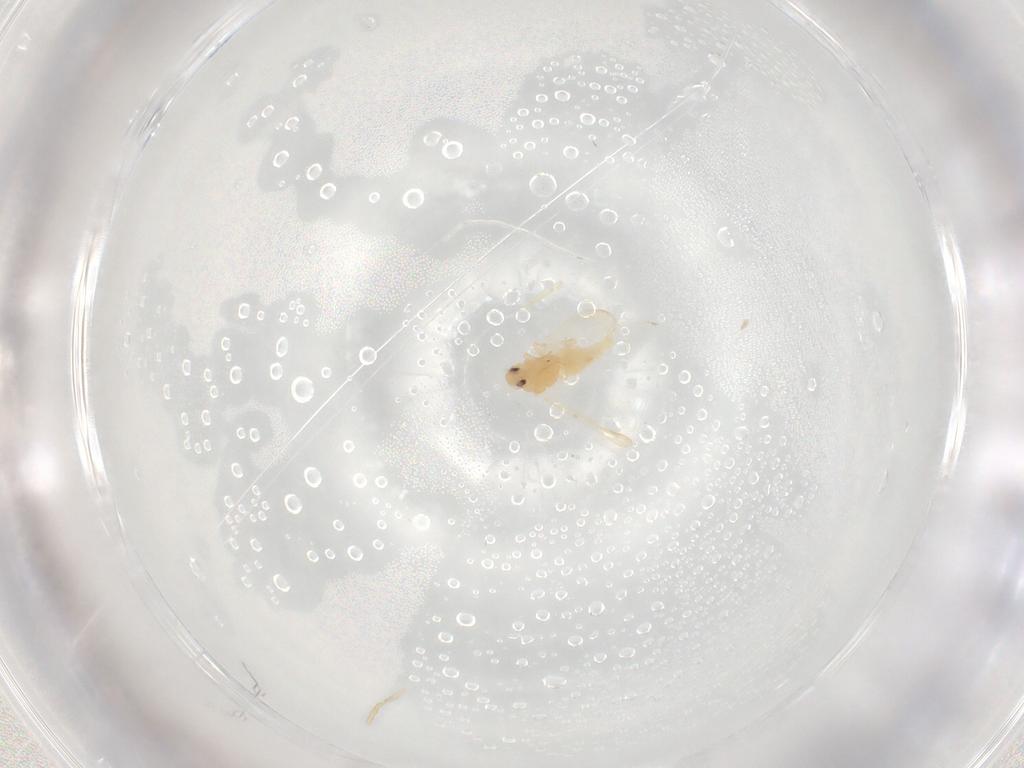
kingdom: Animalia
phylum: Arthropoda
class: Insecta
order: Hemiptera
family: Aleyrodidae
